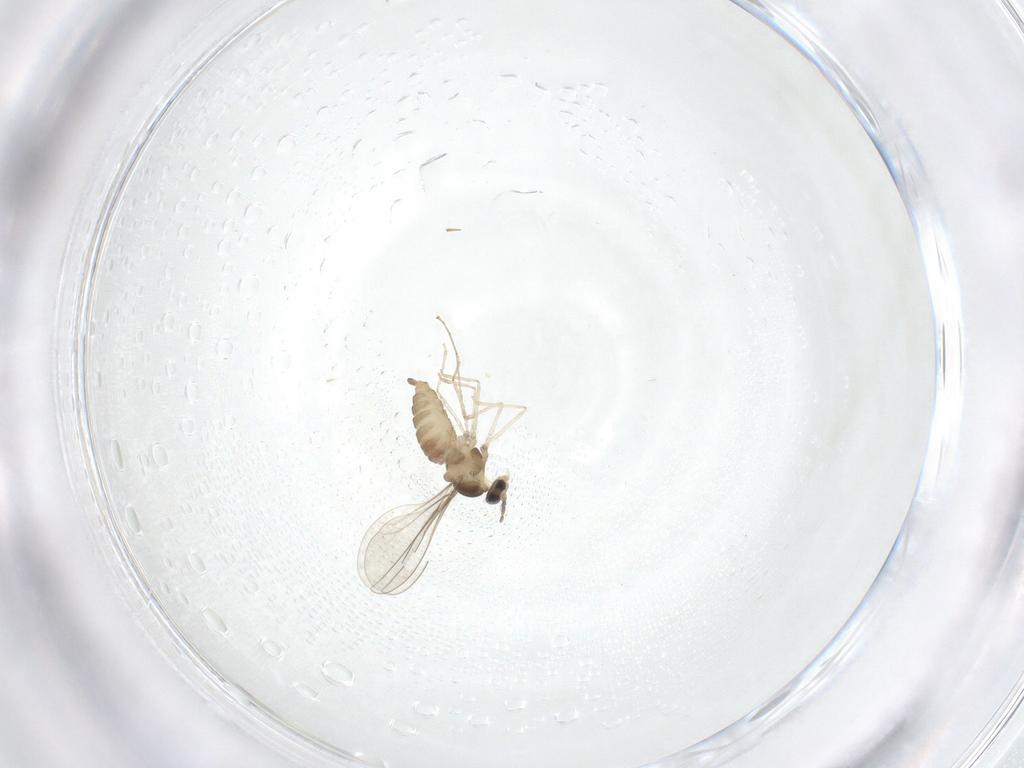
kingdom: Animalia
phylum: Arthropoda
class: Insecta
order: Diptera
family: Cecidomyiidae
